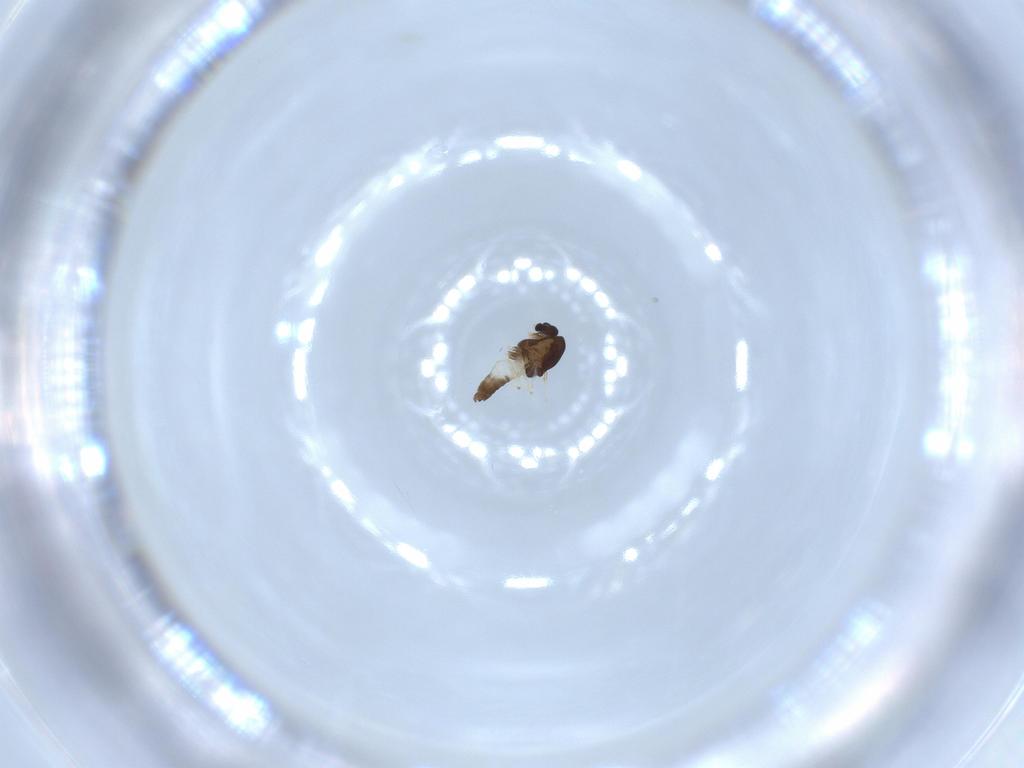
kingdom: Animalia
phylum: Arthropoda
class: Insecta
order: Diptera
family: Chironomidae
